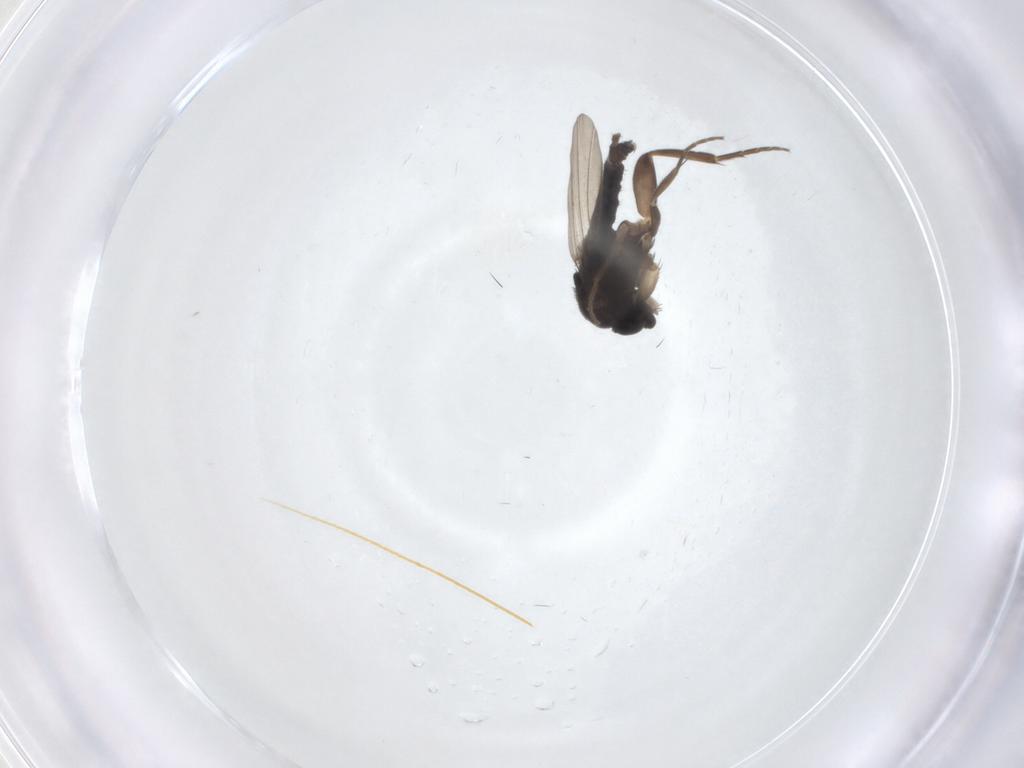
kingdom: Animalia
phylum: Arthropoda
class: Insecta
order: Diptera
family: Phoridae
